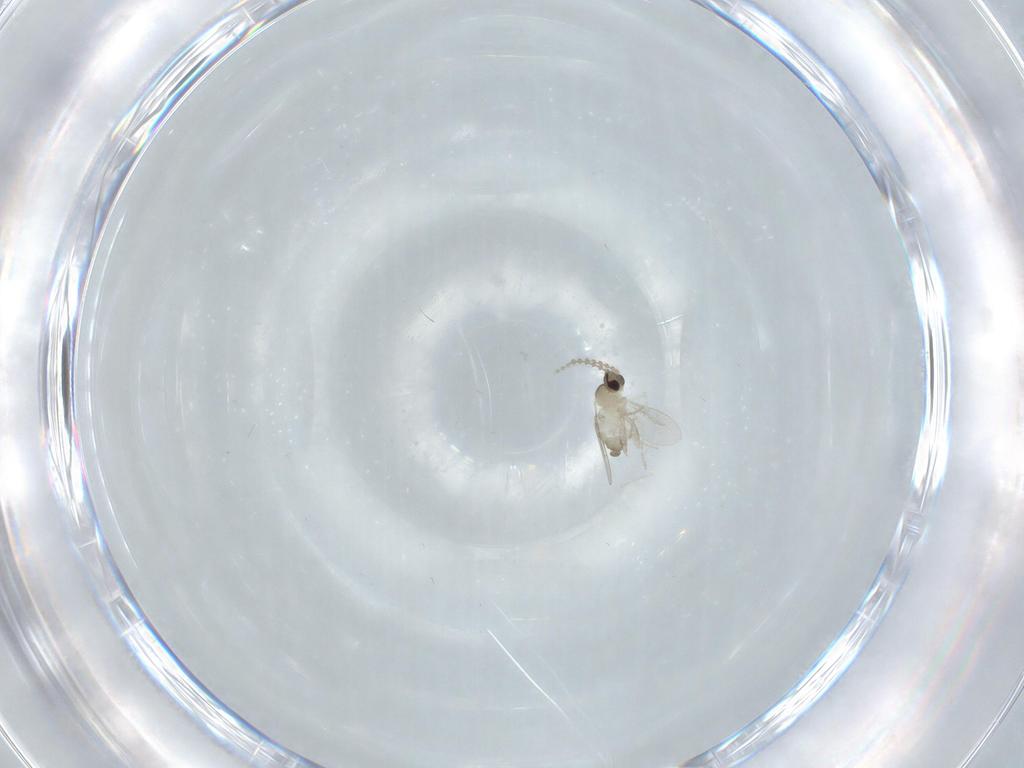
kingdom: Animalia
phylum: Arthropoda
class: Insecta
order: Diptera
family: Cecidomyiidae
